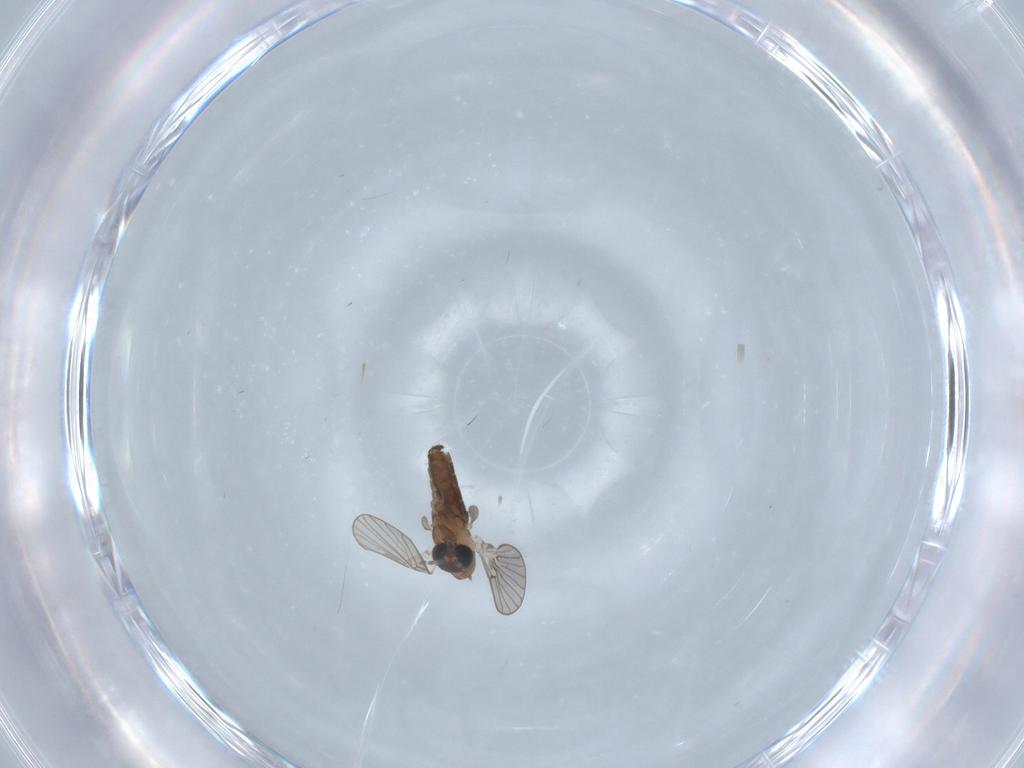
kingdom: Animalia
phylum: Arthropoda
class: Insecta
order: Diptera
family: Psychodidae
